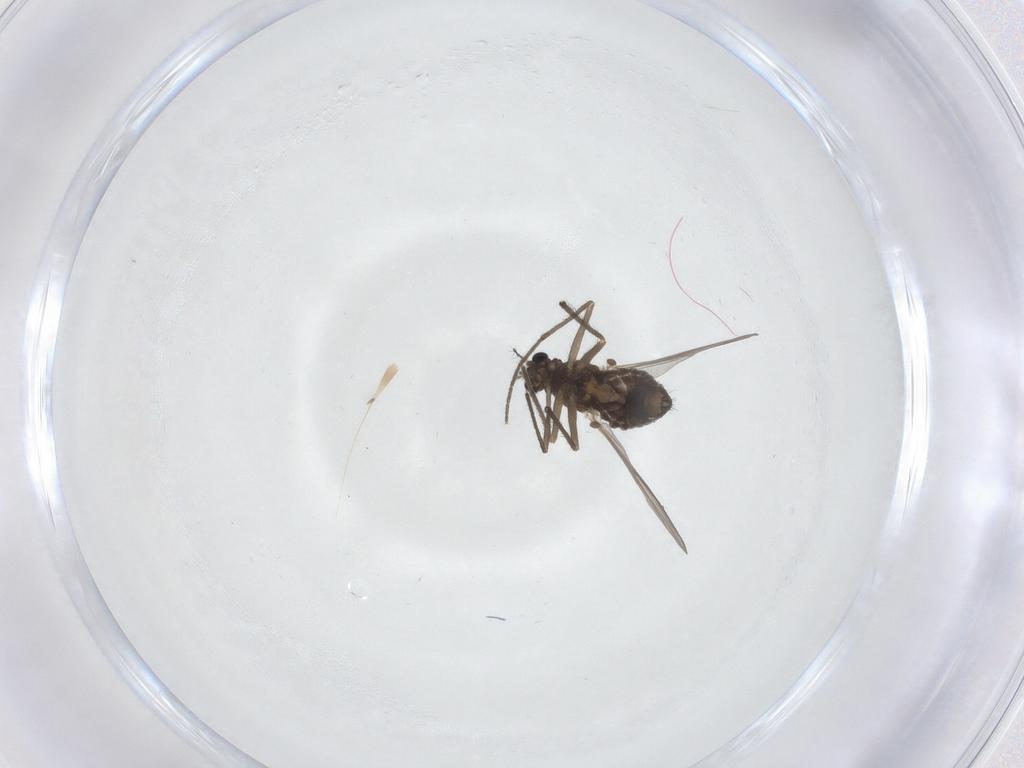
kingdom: Animalia
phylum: Arthropoda
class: Insecta
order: Diptera
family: Chironomidae
